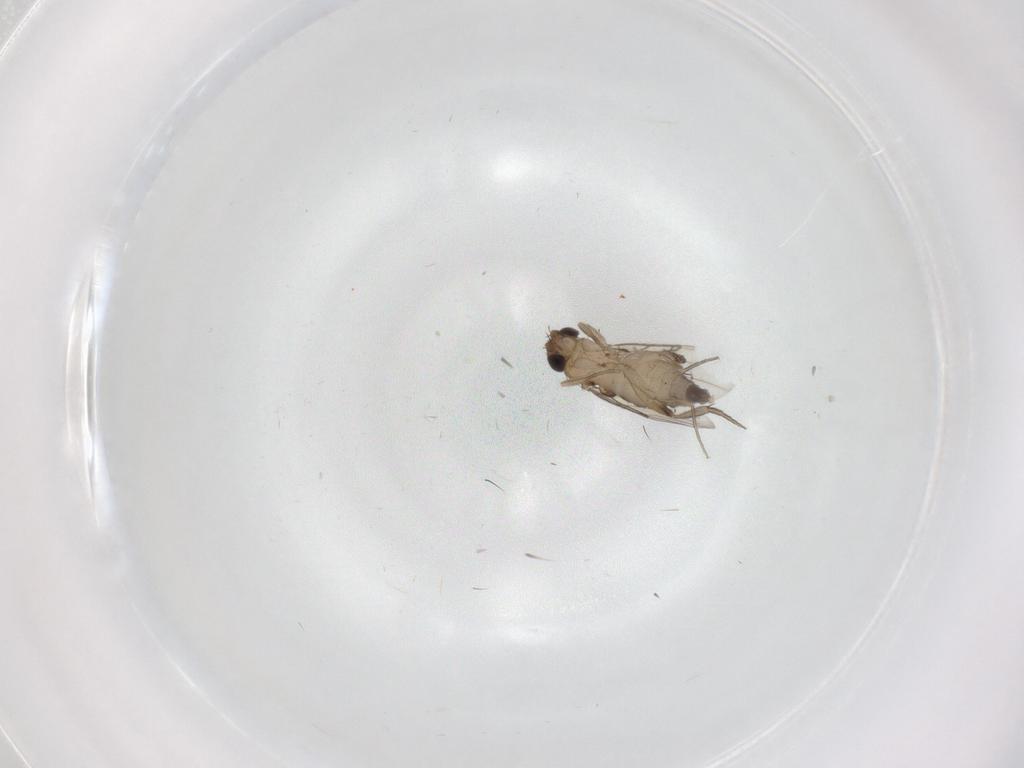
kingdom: Animalia
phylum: Arthropoda
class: Insecta
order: Diptera
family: Phoridae
